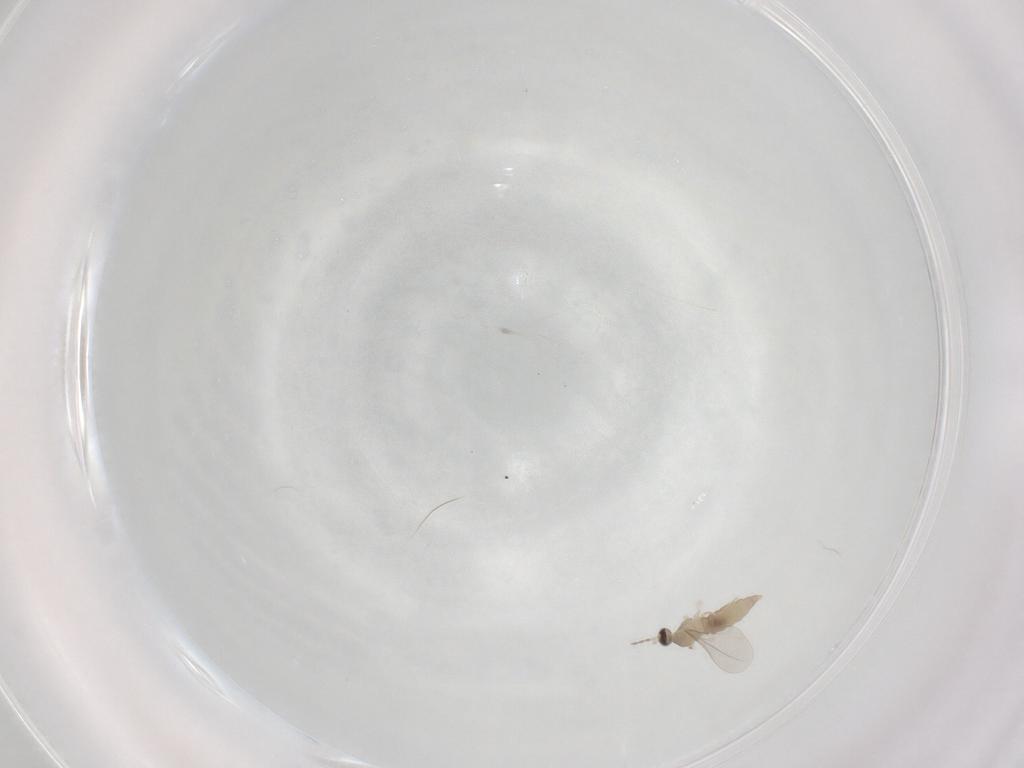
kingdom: Animalia
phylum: Arthropoda
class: Insecta
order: Diptera
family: Cecidomyiidae
